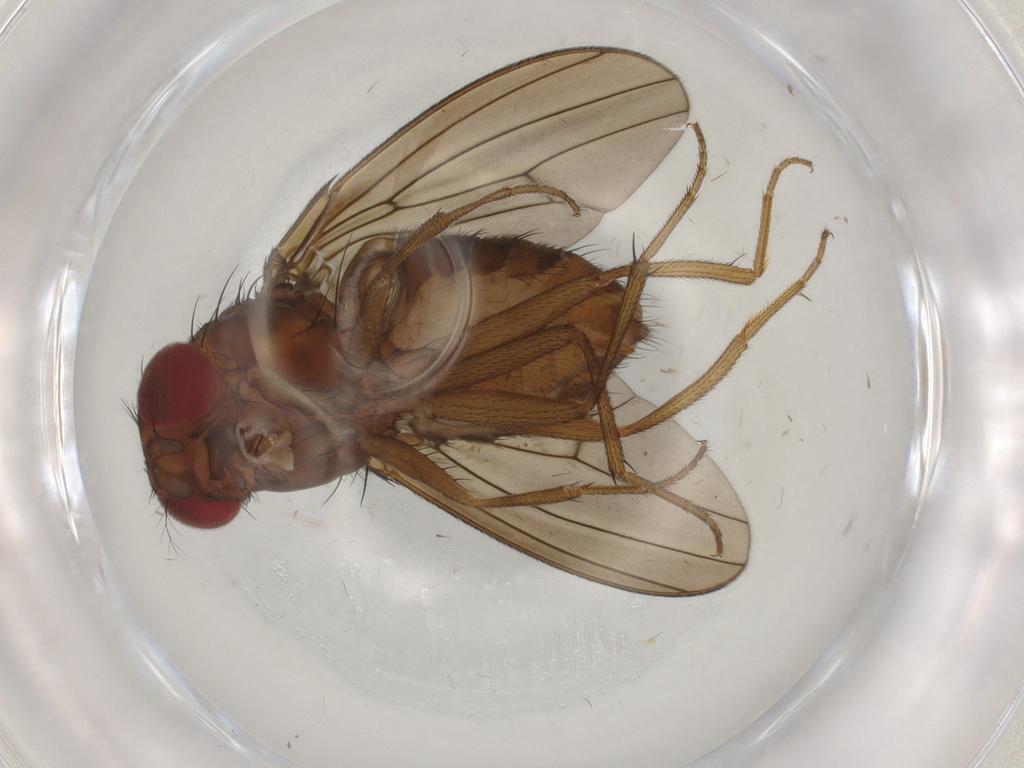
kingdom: Animalia
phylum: Arthropoda
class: Insecta
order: Diptera
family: Drosophilidae
